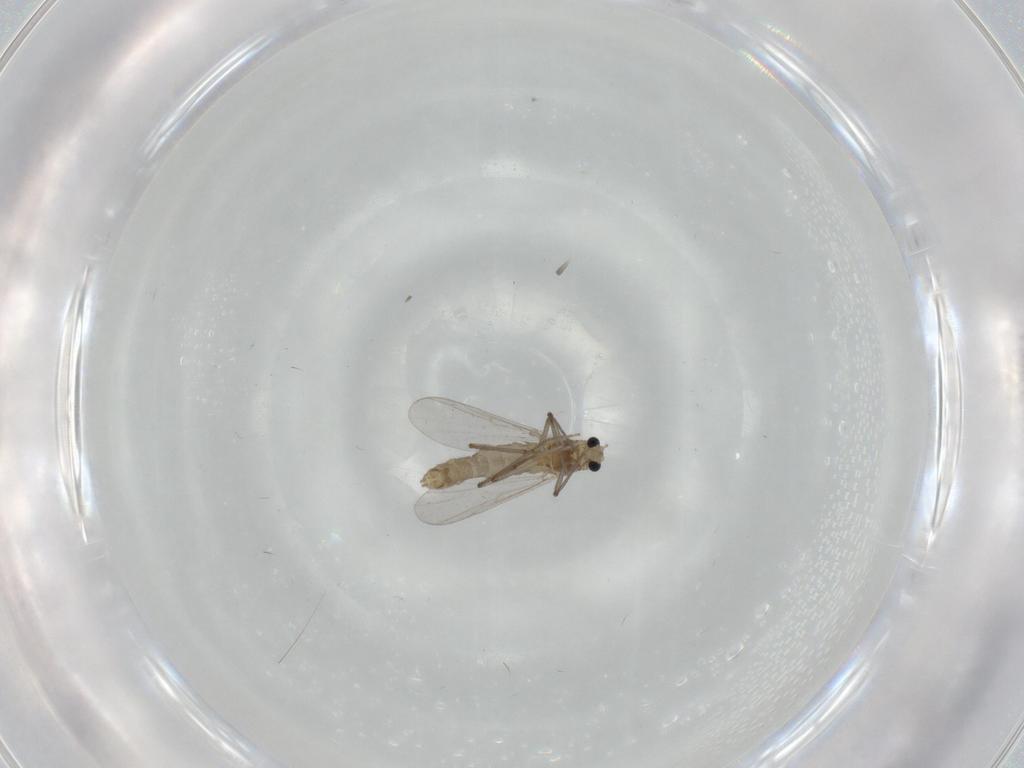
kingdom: Animalia
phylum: Arthropoda
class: Insecta
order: Diptera
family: Chironomidae
